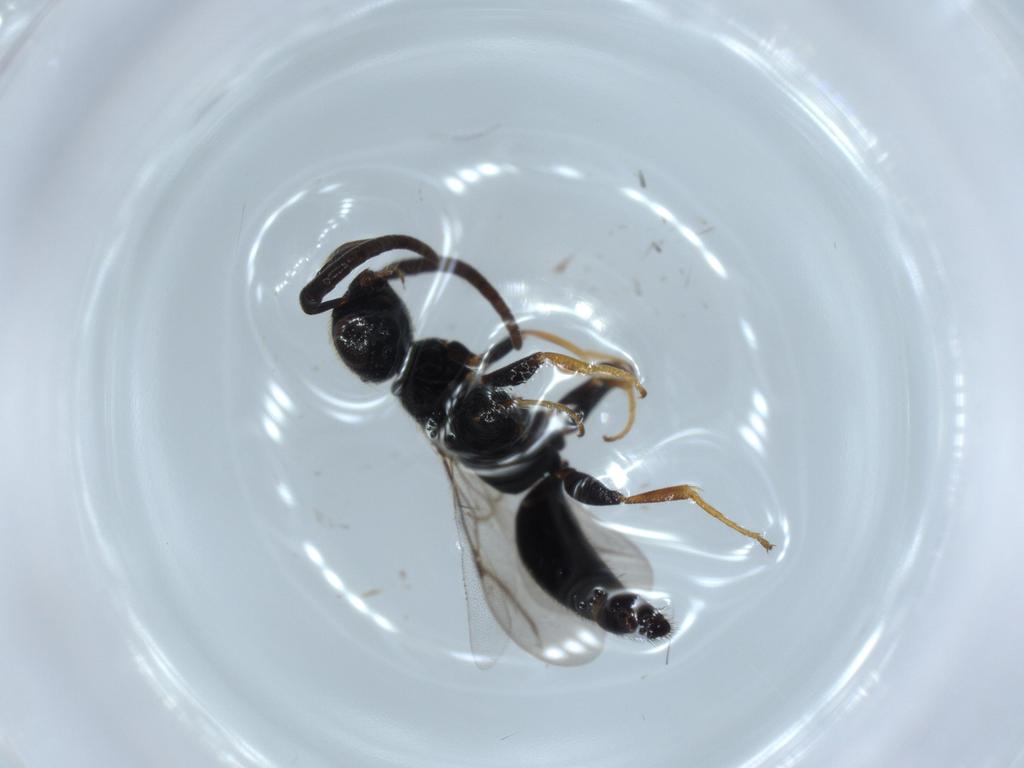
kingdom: Animalia
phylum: Arthropoda
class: Insecta
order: Hymenoptera
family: Bethylidae
